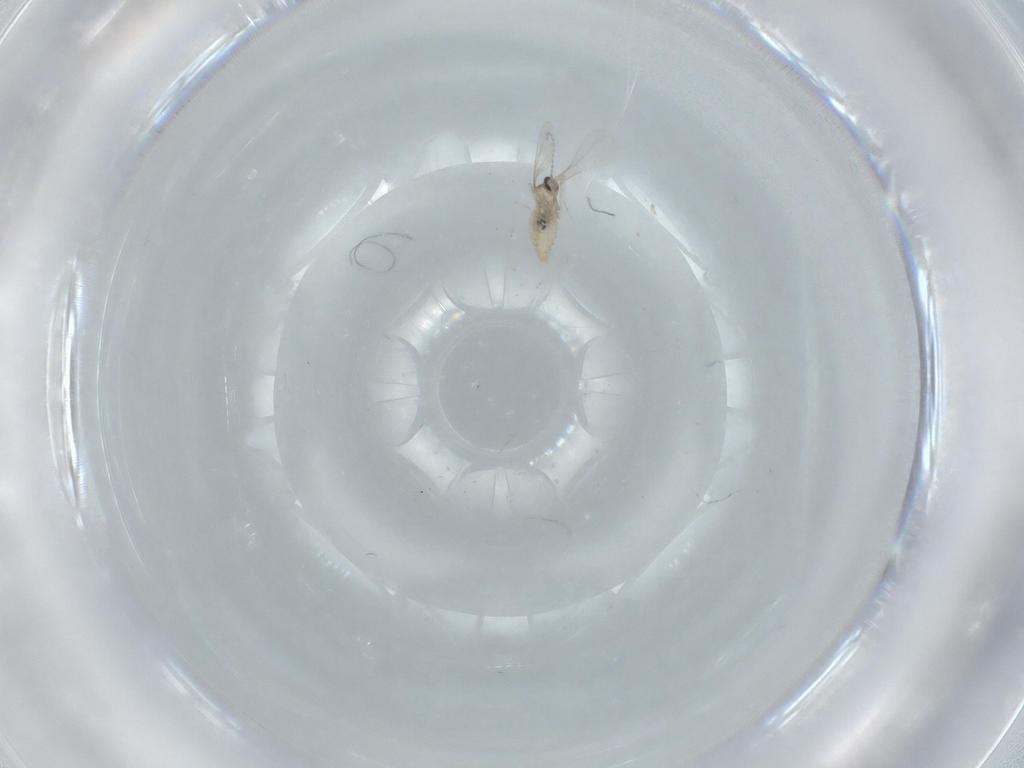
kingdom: Animalia
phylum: Arthropoda
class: Insecta
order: Diptera
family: Cecidomyiidae
